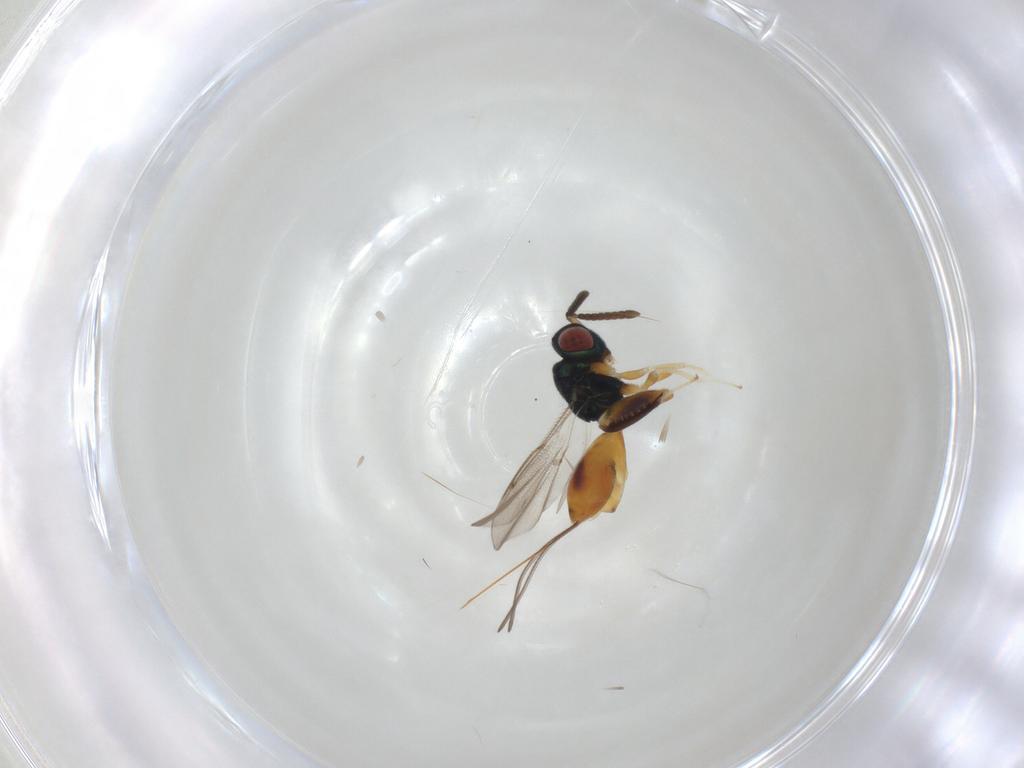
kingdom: Animalia
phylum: Arthropoda
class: Insecta
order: Hymenoptera
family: Torymidae
